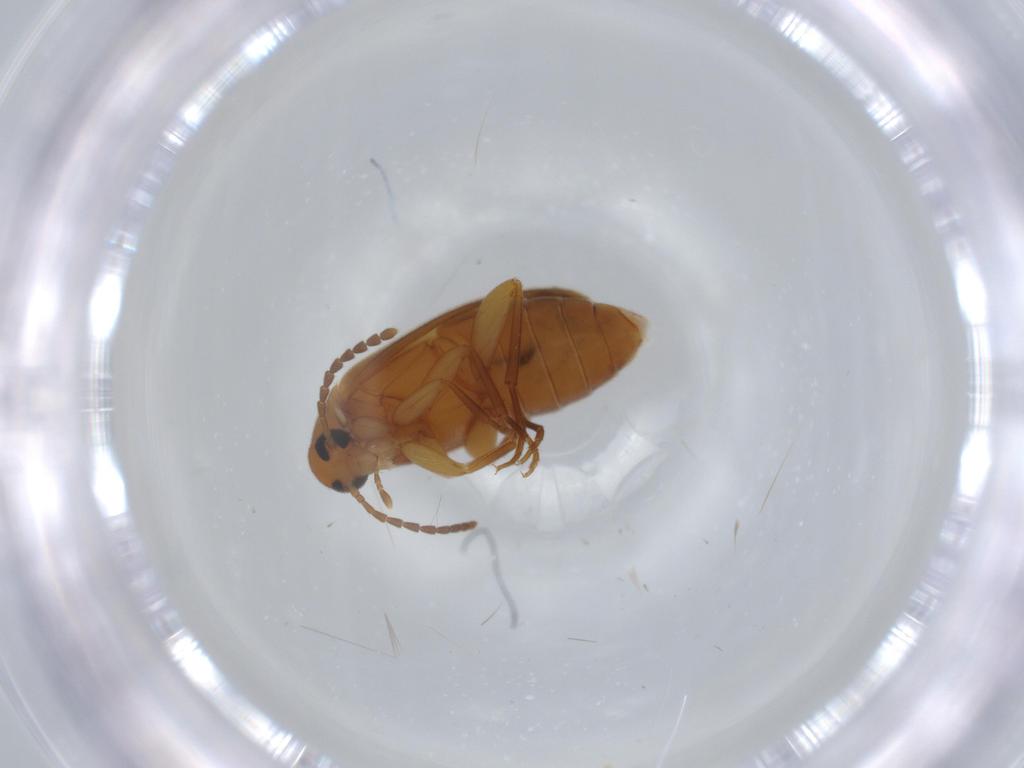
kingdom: Animalia
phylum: Arthropoda
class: Insecta
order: Coleoptera
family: Scraptiidae
